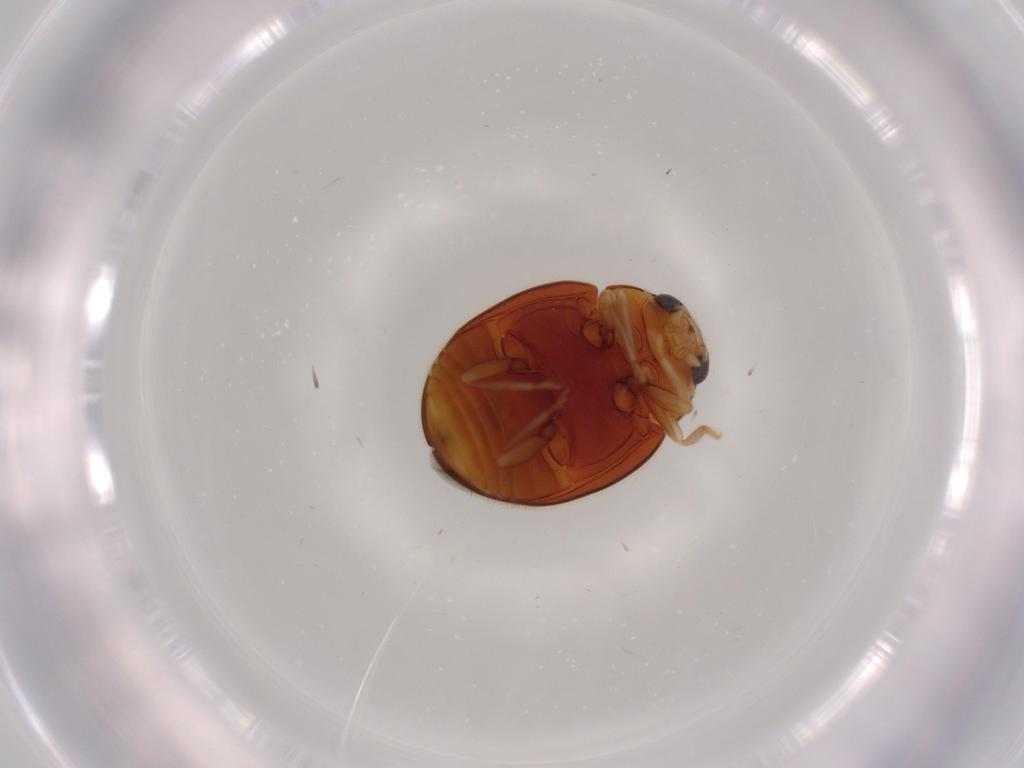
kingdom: Animalia
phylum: Arthropoda
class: Insecta
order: Coleoptera
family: Coccinellidae
